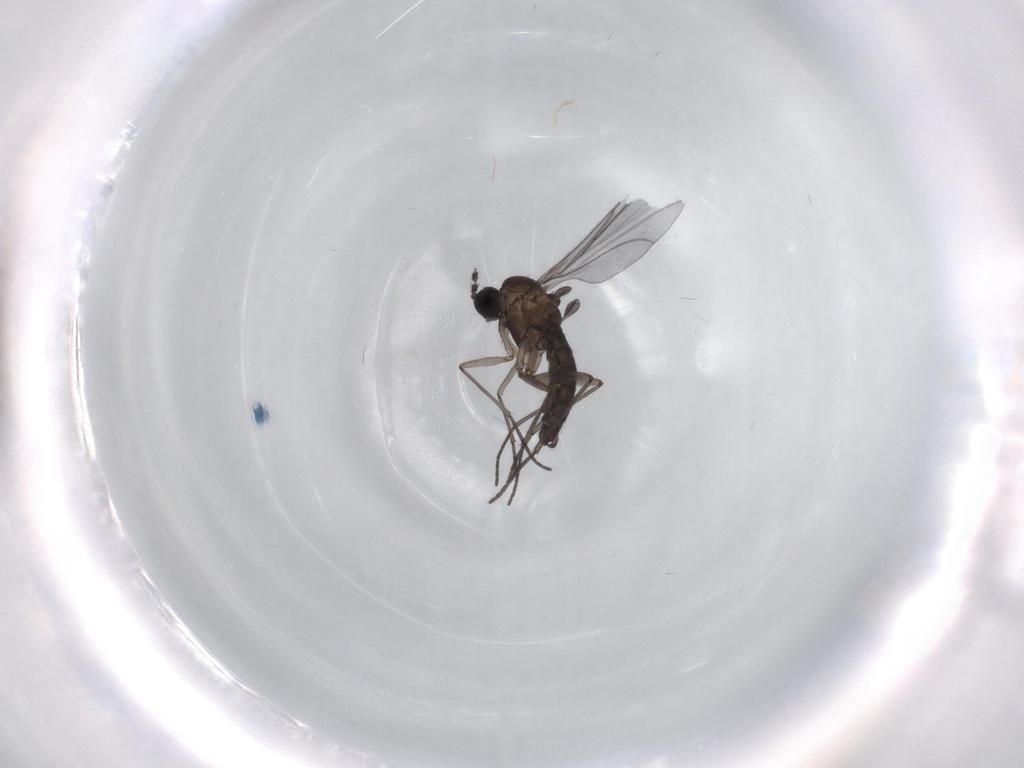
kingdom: Animalia
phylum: Arthropoda
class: Insecta
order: Diptera
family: Sciaridae
